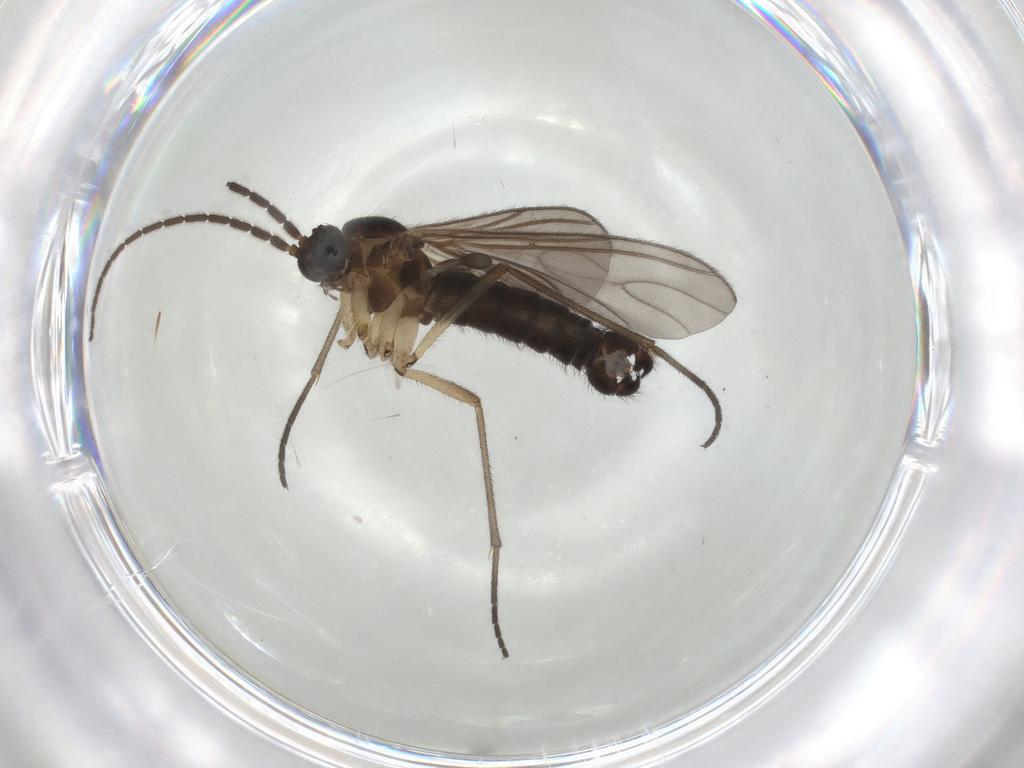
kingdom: Animalia
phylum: Arthropoda
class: Insecta
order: Diptera
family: Sciaridae
